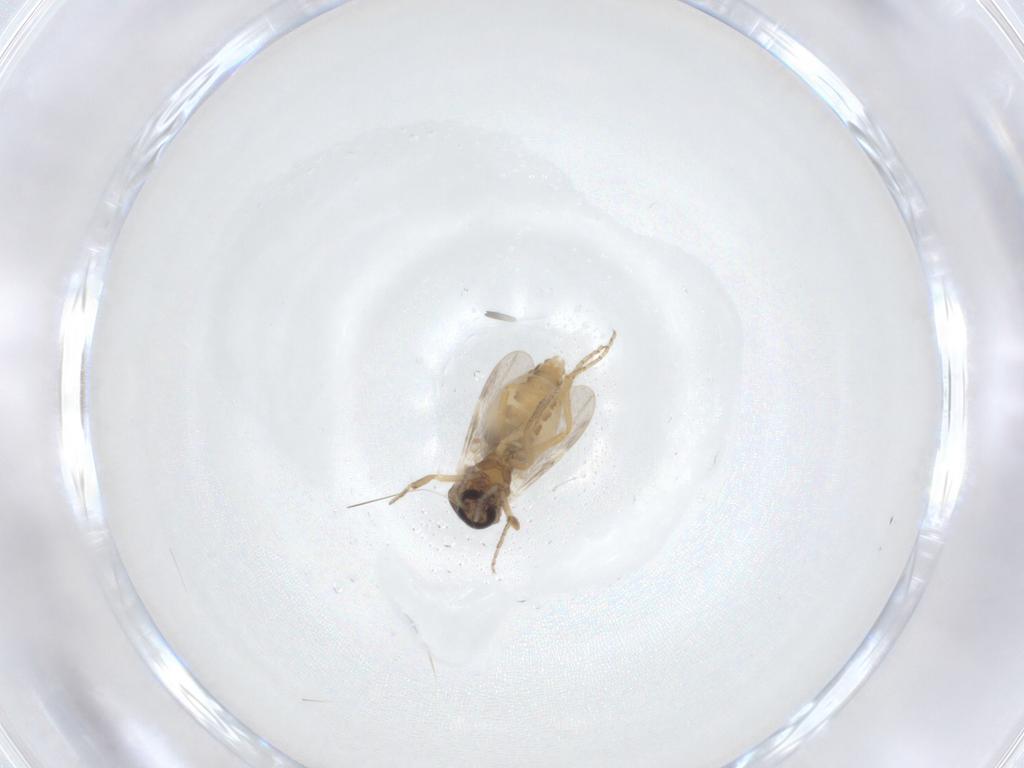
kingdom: Animalia
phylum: Arthropoda
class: Insecta
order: Diptera
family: Ceratopogonidae
